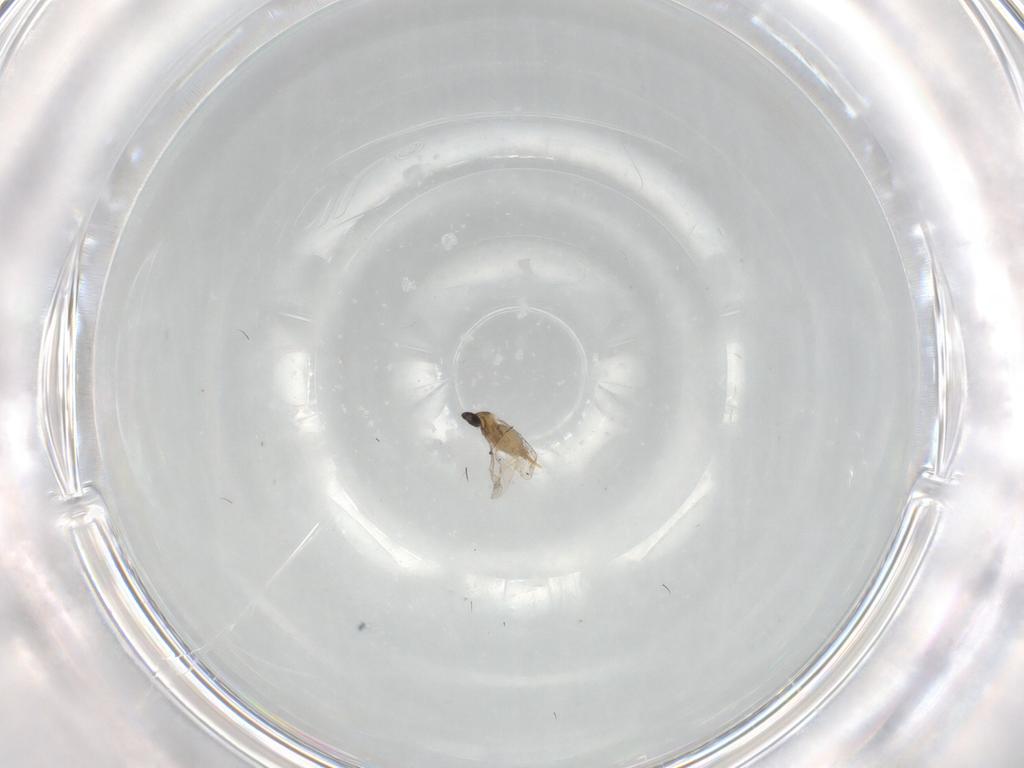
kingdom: Animalia
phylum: Arthropoda
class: Insecta
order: Diptera
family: Cecidomyiidae
